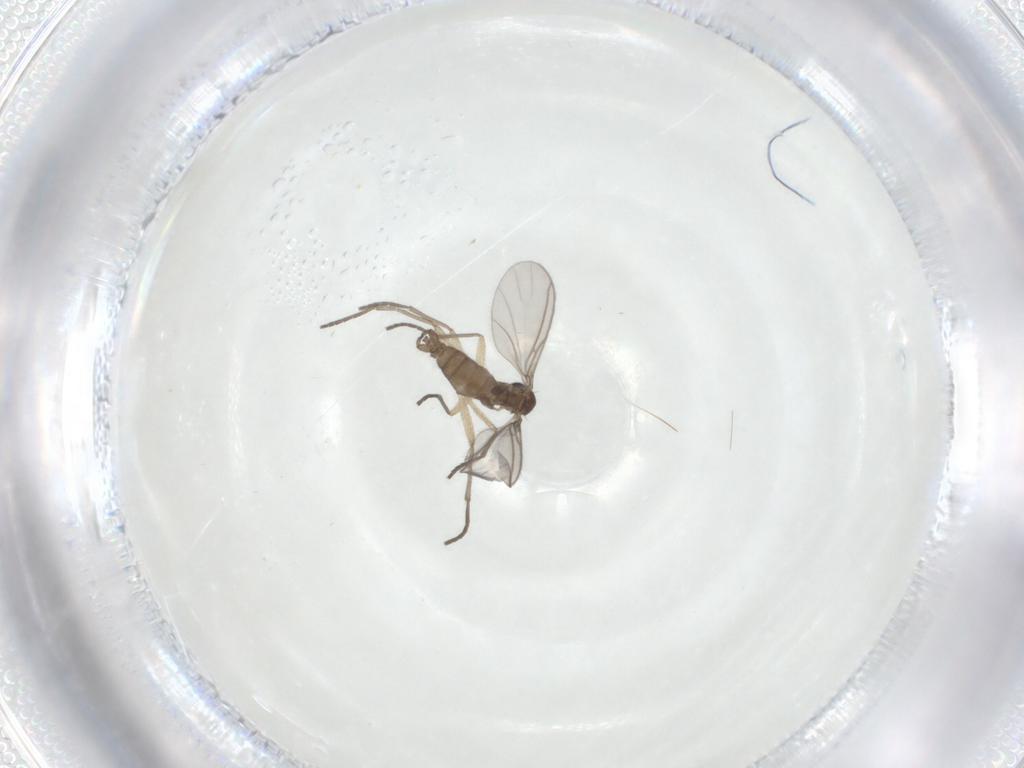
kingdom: Animalia
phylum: Arthropoda
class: Insecta
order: Diptera
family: Sciaridae
